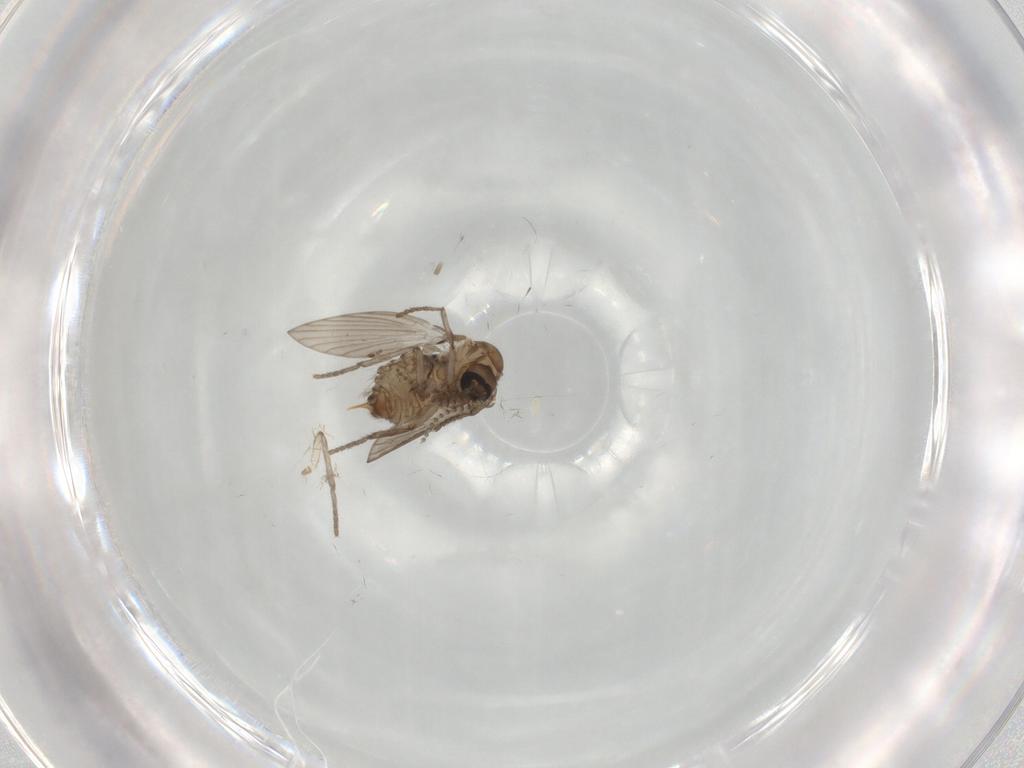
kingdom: Animalia
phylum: Arthropoda
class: Insecta
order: Diptera
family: Psychodidae
